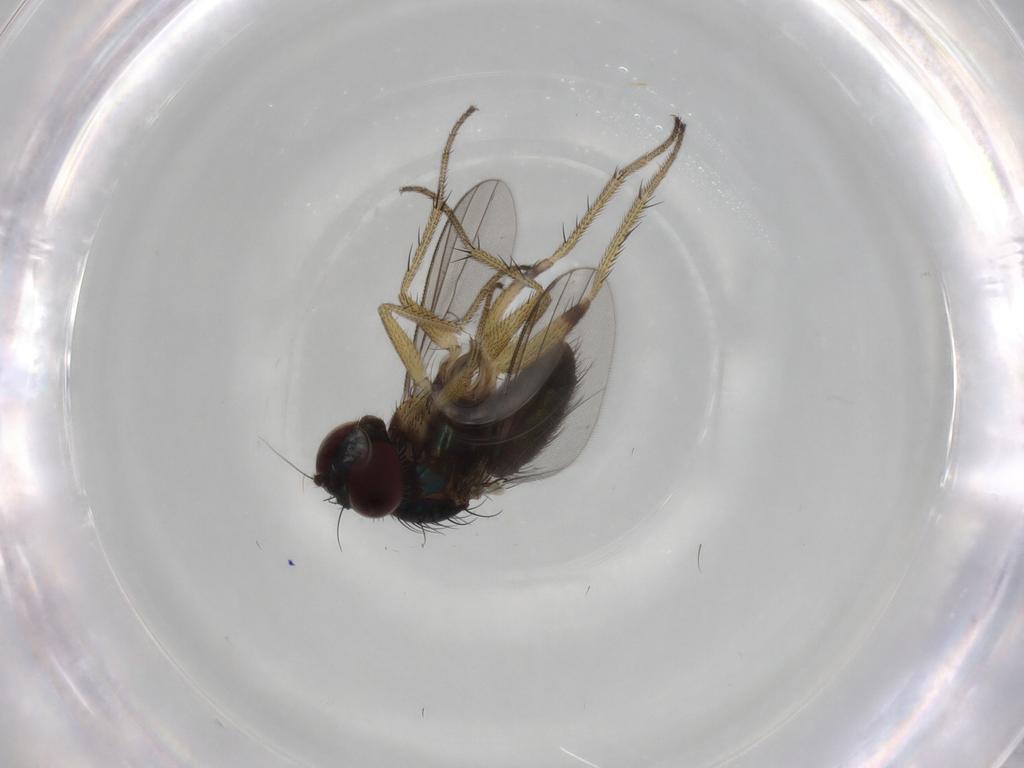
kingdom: Animalia
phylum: Arthropoda
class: Insecta
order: Diptera
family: Dolichopodidae
